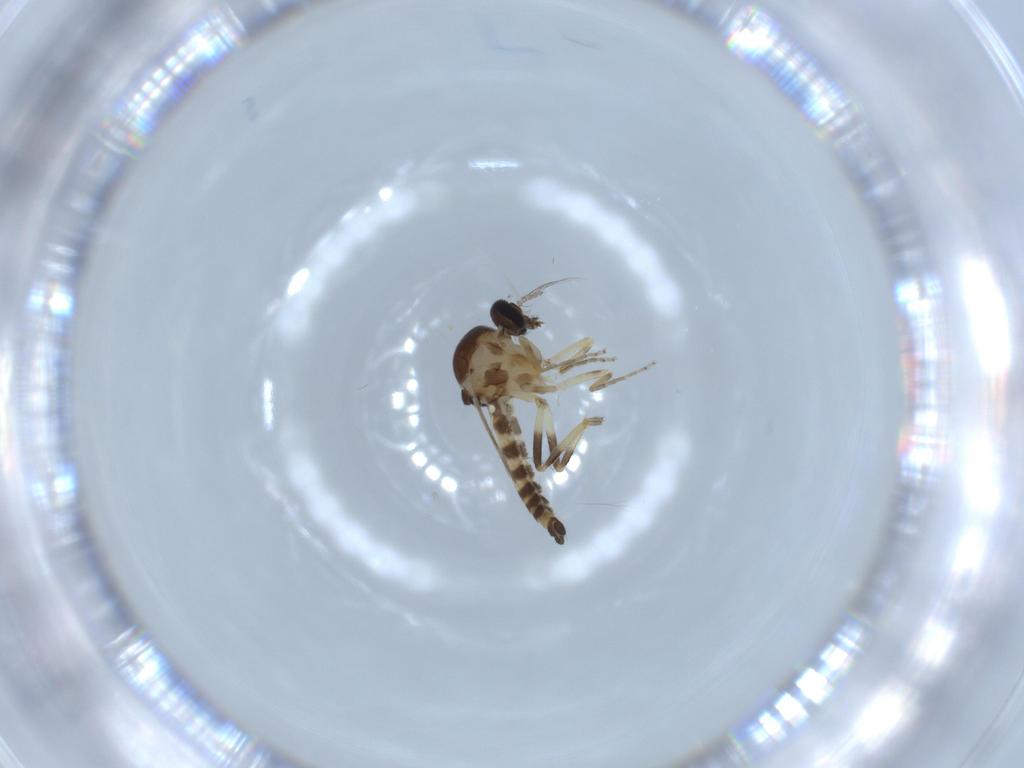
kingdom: Animalia
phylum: Arthropoda
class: Insecta
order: Diptera
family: Ceratopogonidae
